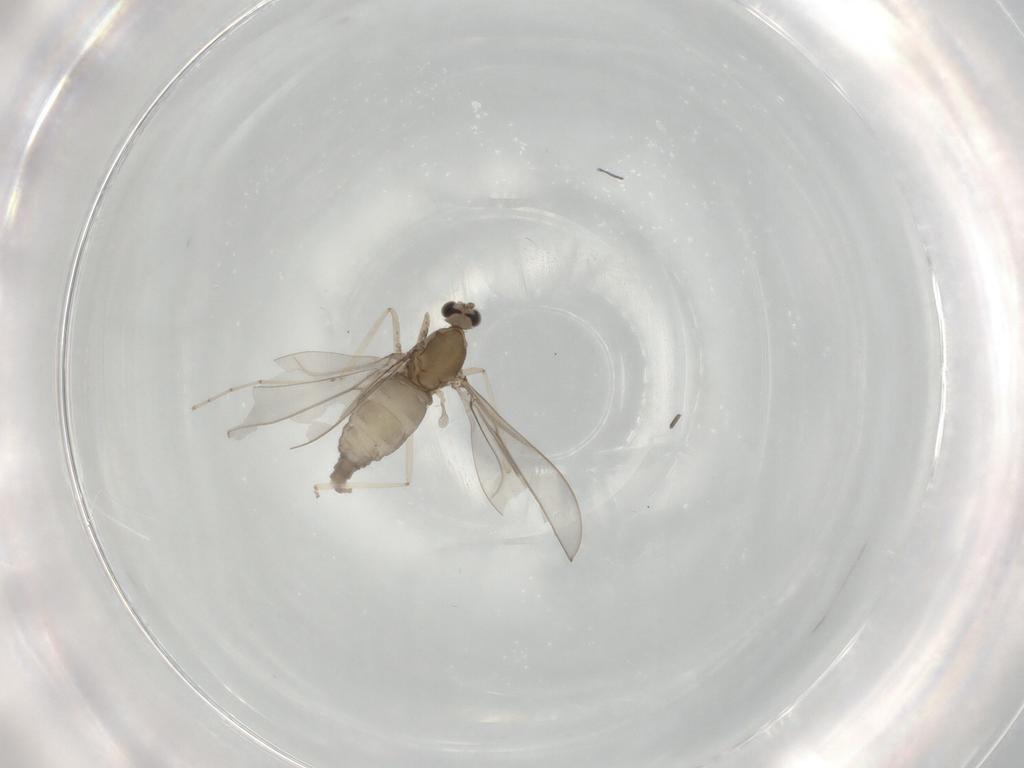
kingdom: Animalia
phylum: Arthropoda
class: Insecta
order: Diptera
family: Cecidomyiidae
